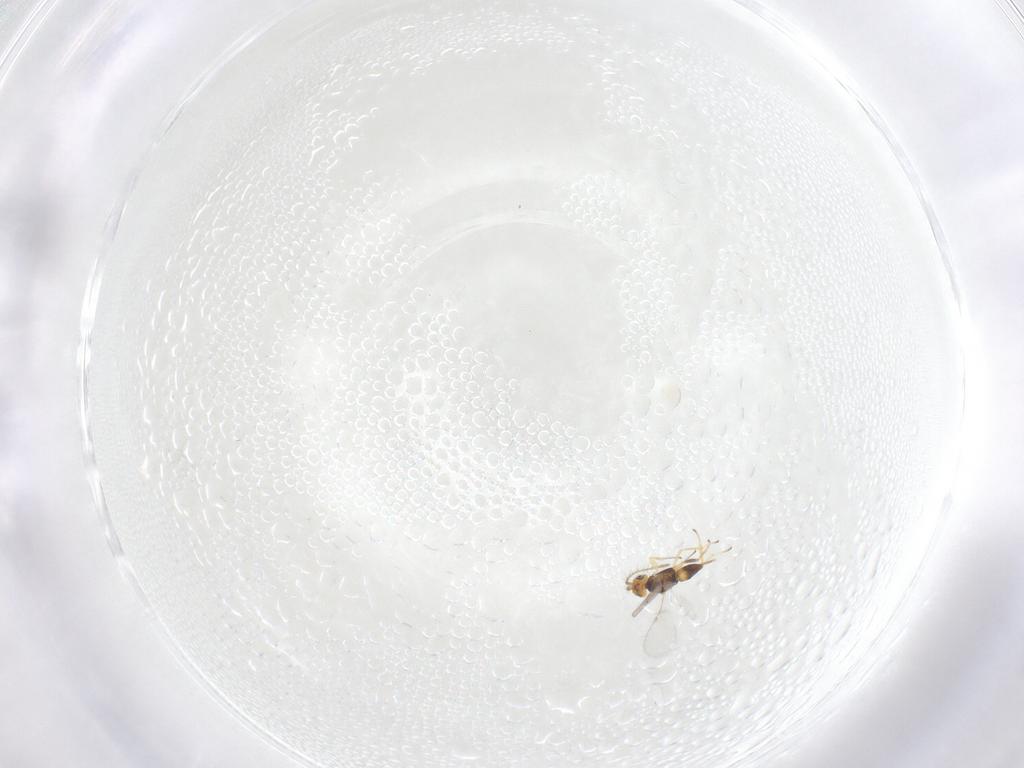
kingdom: Animalia
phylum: Arthropoda
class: Insecta
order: Hymenoptera
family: Encyrtidae
